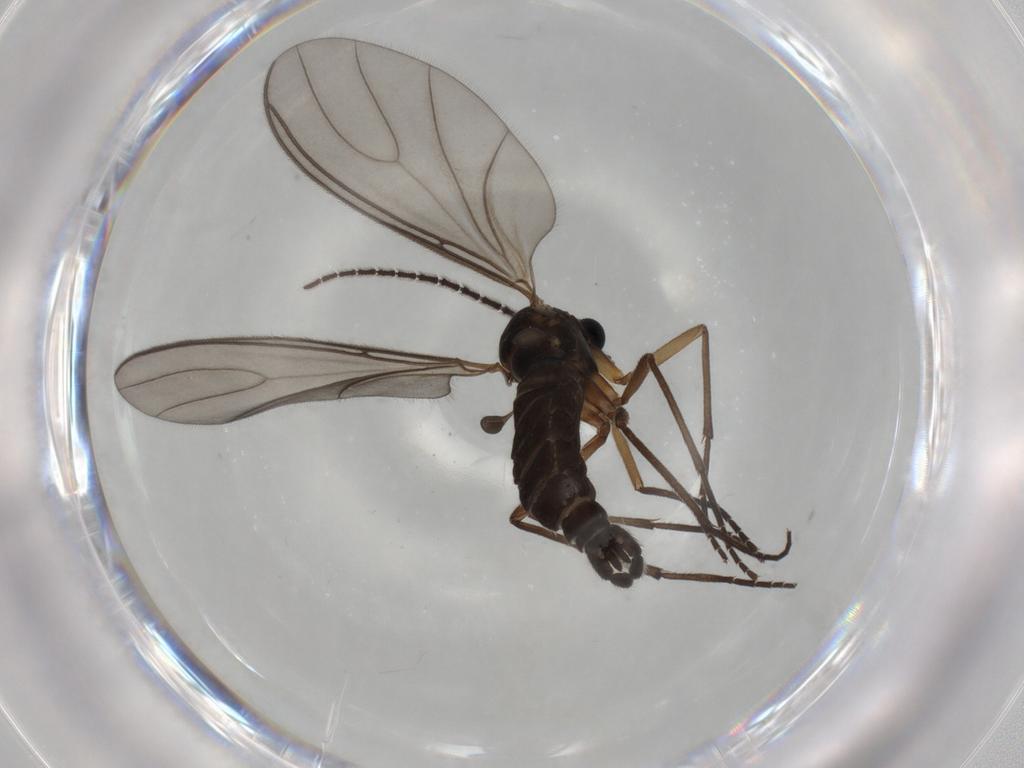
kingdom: Animalia
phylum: Arthropoda
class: Insecta
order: Diptera
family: Sciaridae
